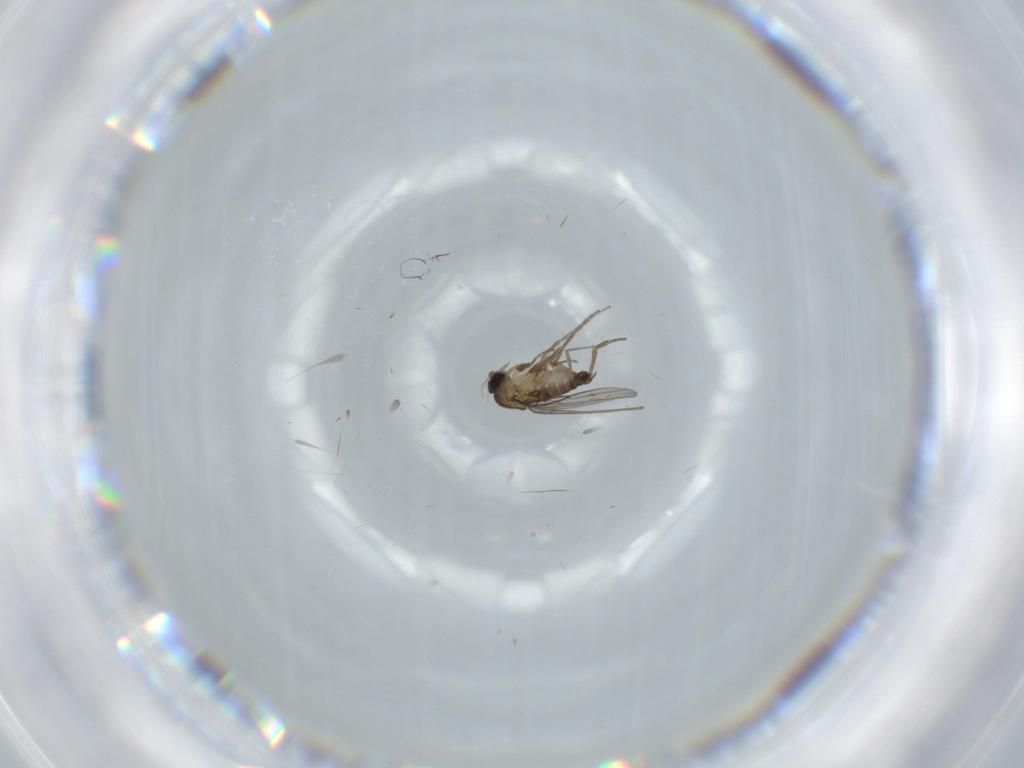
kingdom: Animalia
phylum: Arthropoda
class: Insecta
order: Diptera
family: Phoridae
